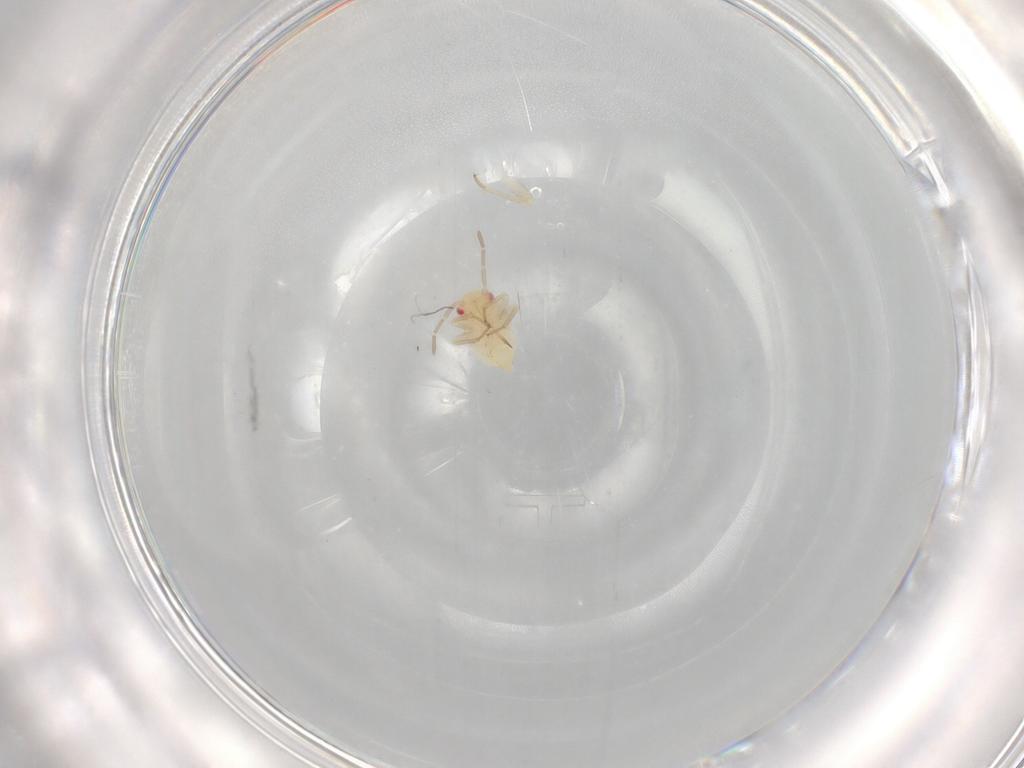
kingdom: Animalia
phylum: Arthropoda
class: Insecta
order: Hemiptera
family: Miridae
